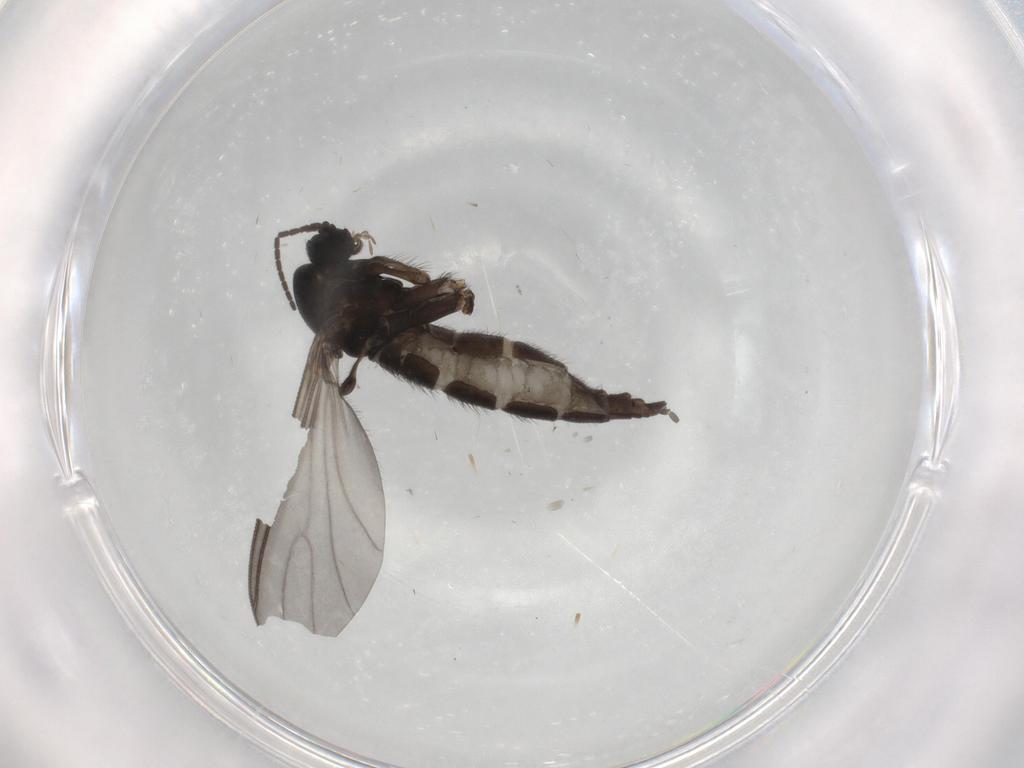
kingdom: Animalia
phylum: Arthropoda
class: Insecta
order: Diptera
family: Sciaridae
